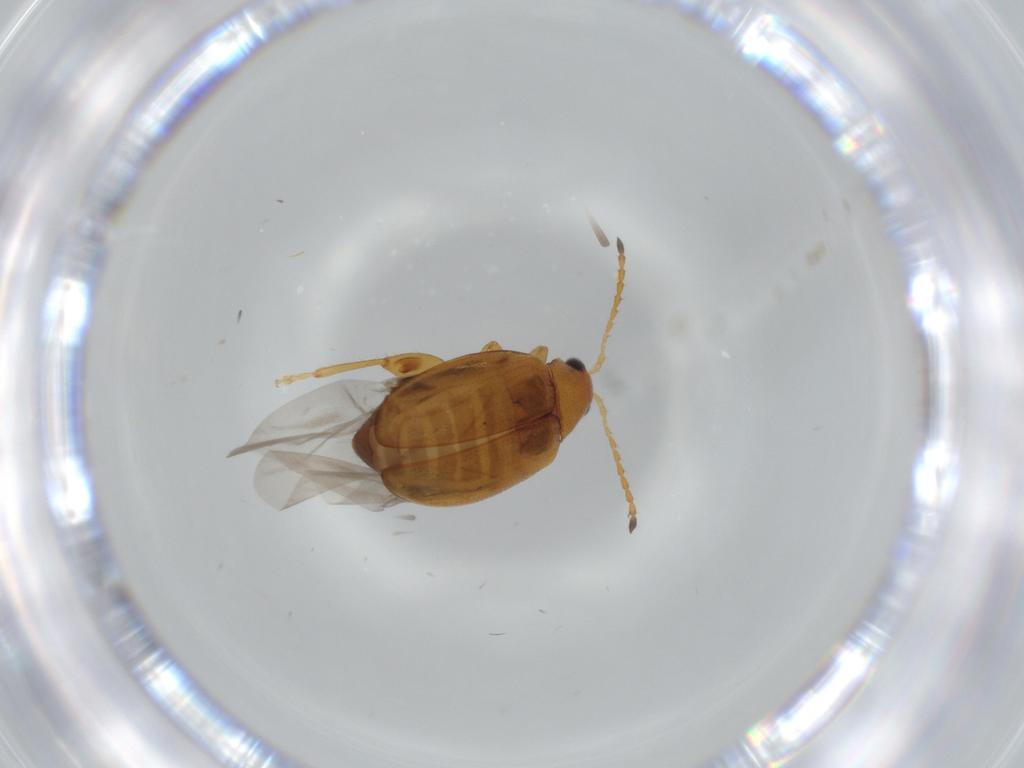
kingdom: Animalia
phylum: Arthropoda
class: Insecta
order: Coleoptera
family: Chrysomelidae
